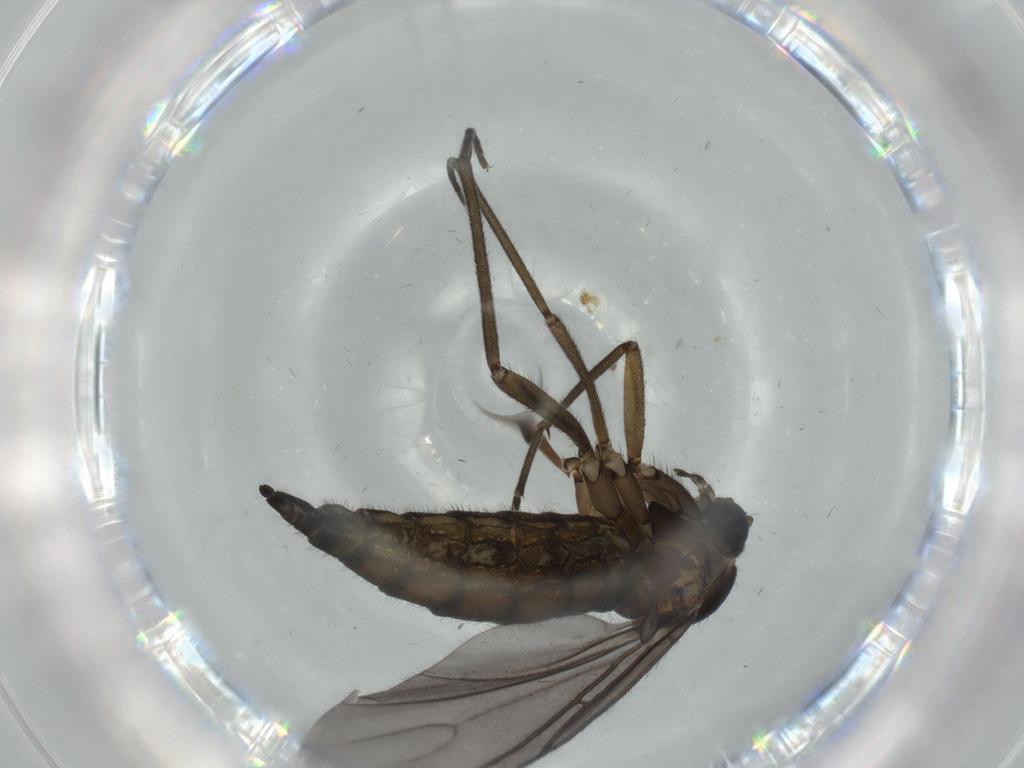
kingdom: Animalia
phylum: Arthropoda
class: Insecta
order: Diptera
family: Sciaridae
